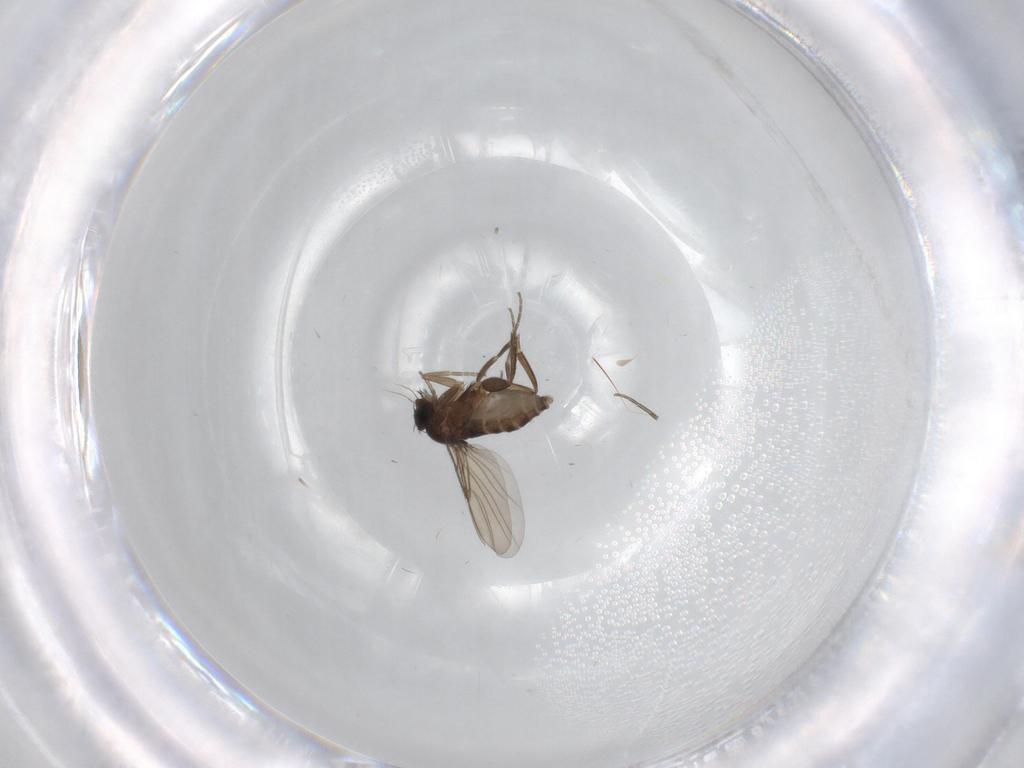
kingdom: Animalia
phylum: Arthropoda
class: Insecta
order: Diptera
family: Phoridae
